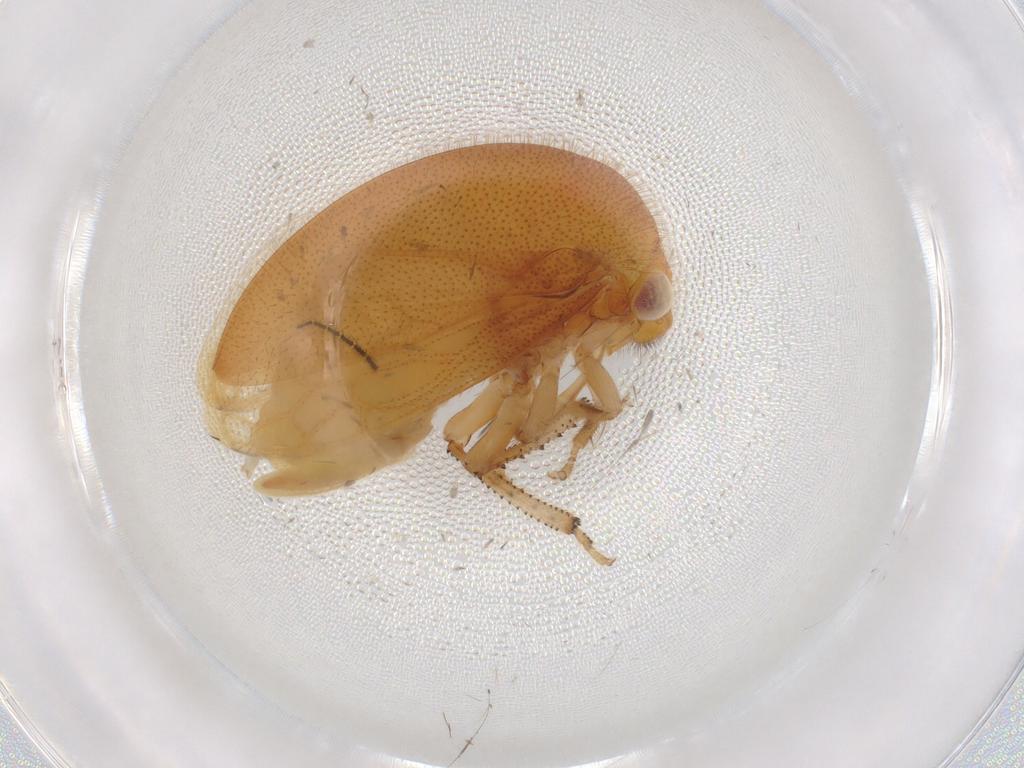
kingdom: Animalia
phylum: Arthropoda
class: Insecta
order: Hemiptera
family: Membracidae
